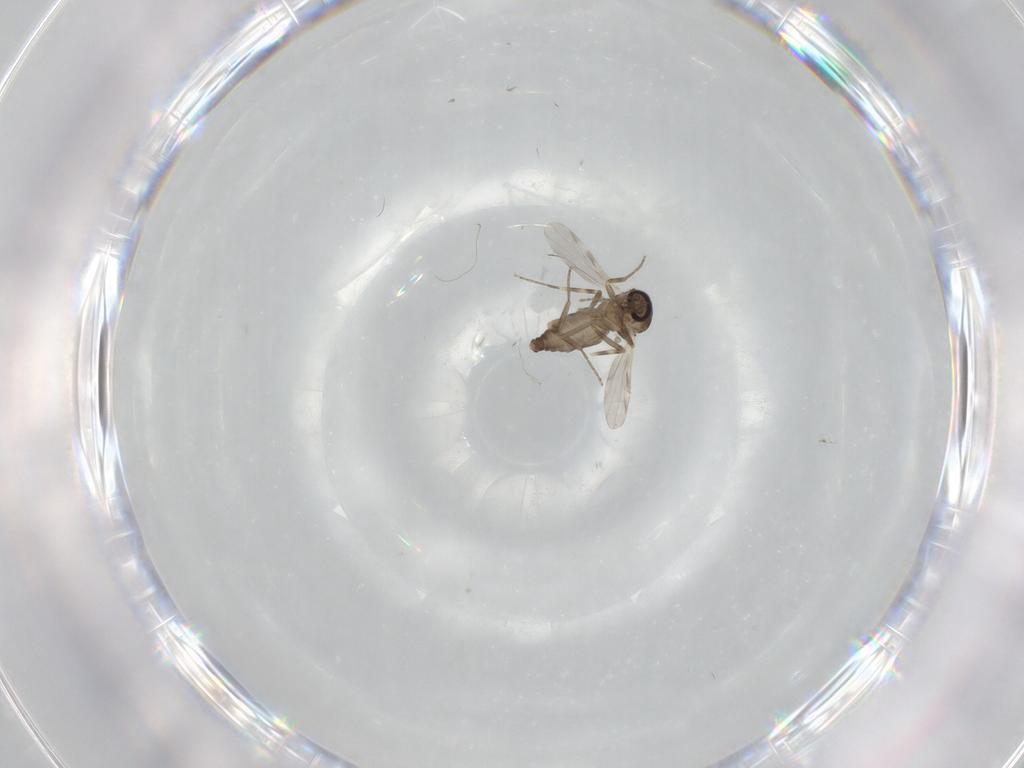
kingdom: Animalia
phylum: Arthropoda
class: Insecta
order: Diptera
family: Ceratopogonidae
